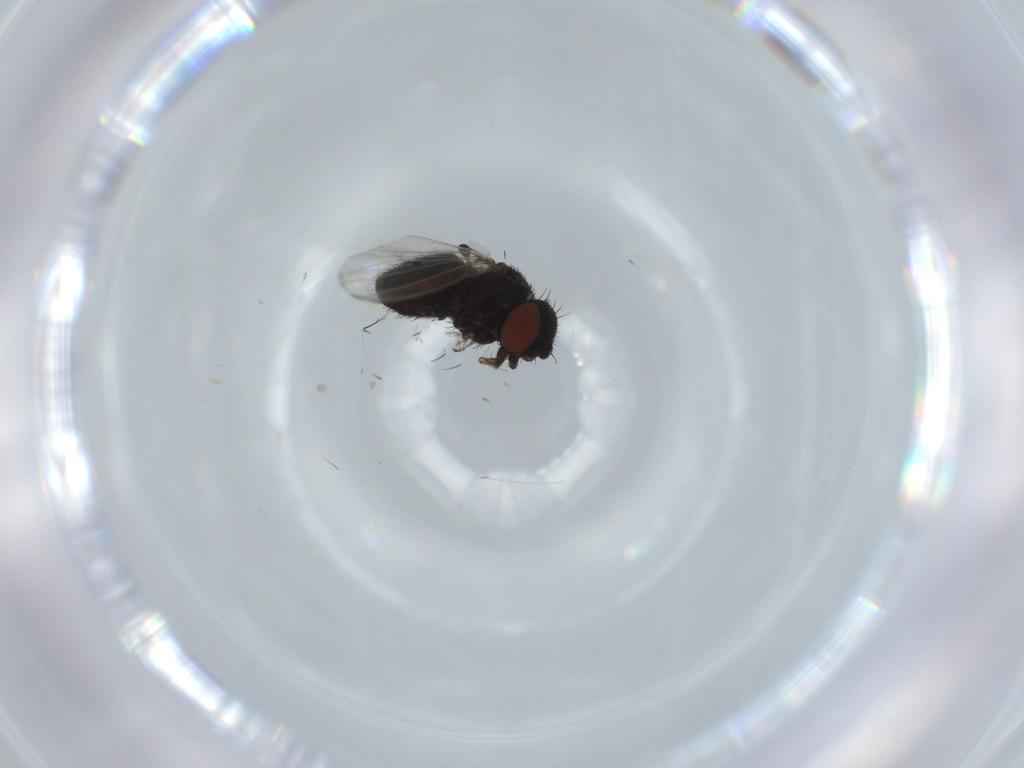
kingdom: Animalia
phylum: Arthropoda
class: Insecta
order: Diptera
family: Milichiidae
